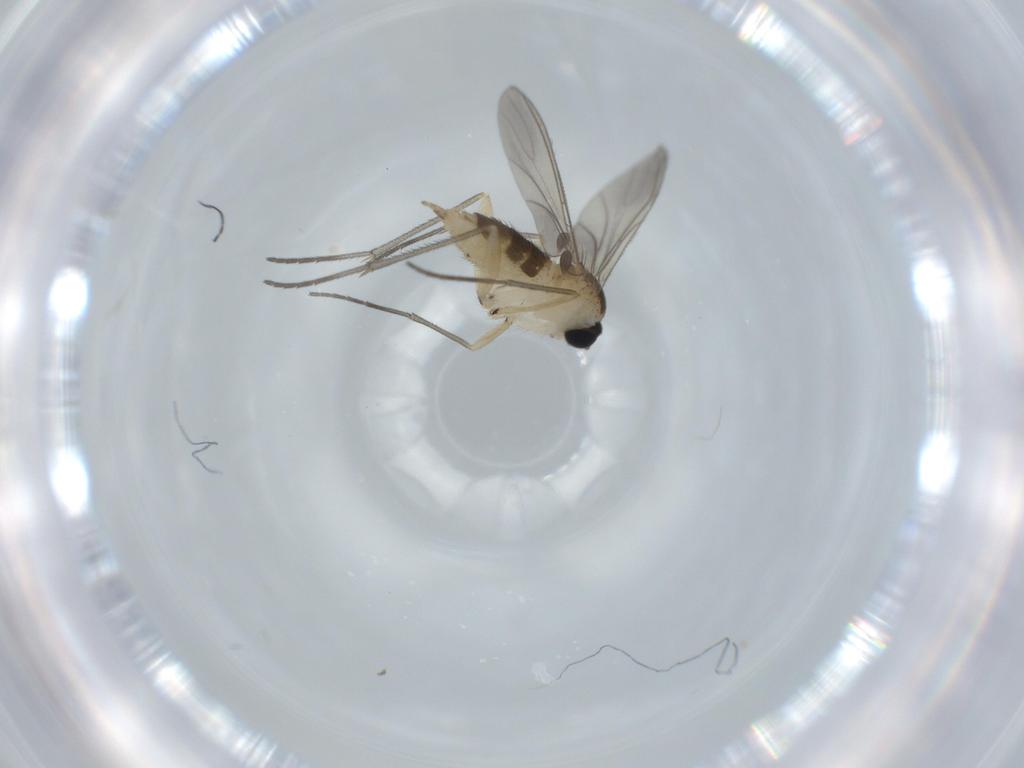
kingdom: Animalia
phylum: Arthropoda
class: Insecta
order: Diptera
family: Sciaridae
